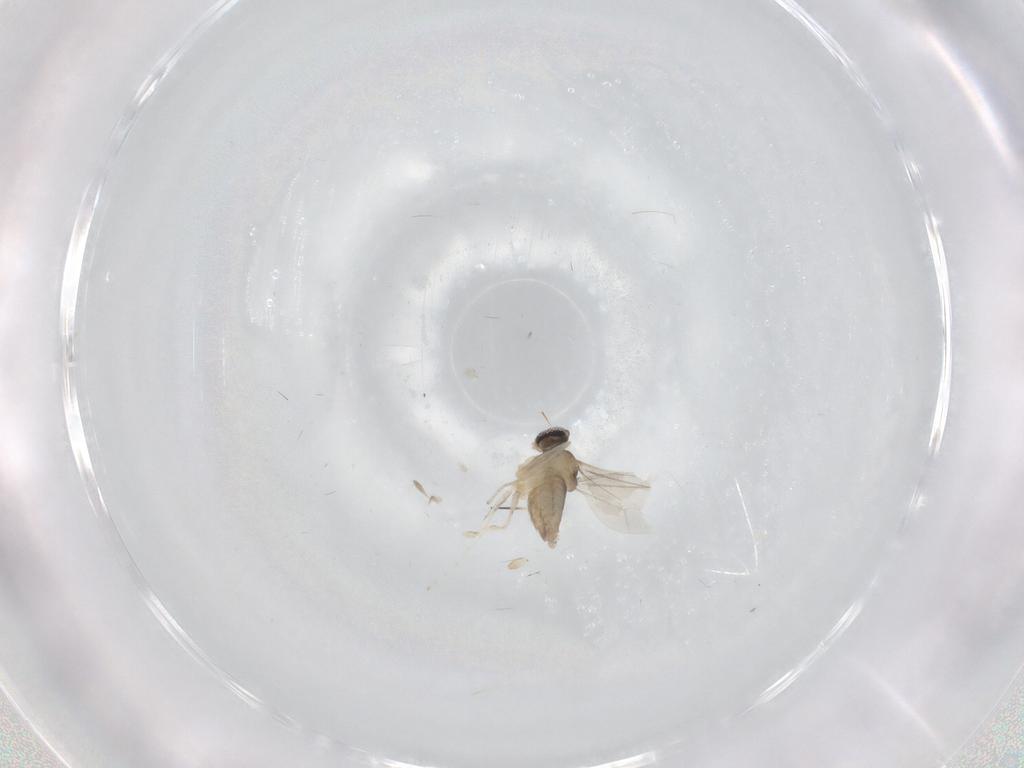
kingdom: Animalia
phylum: Arthropoda
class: Insecta
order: Diptera
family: Cecidomyiidae
